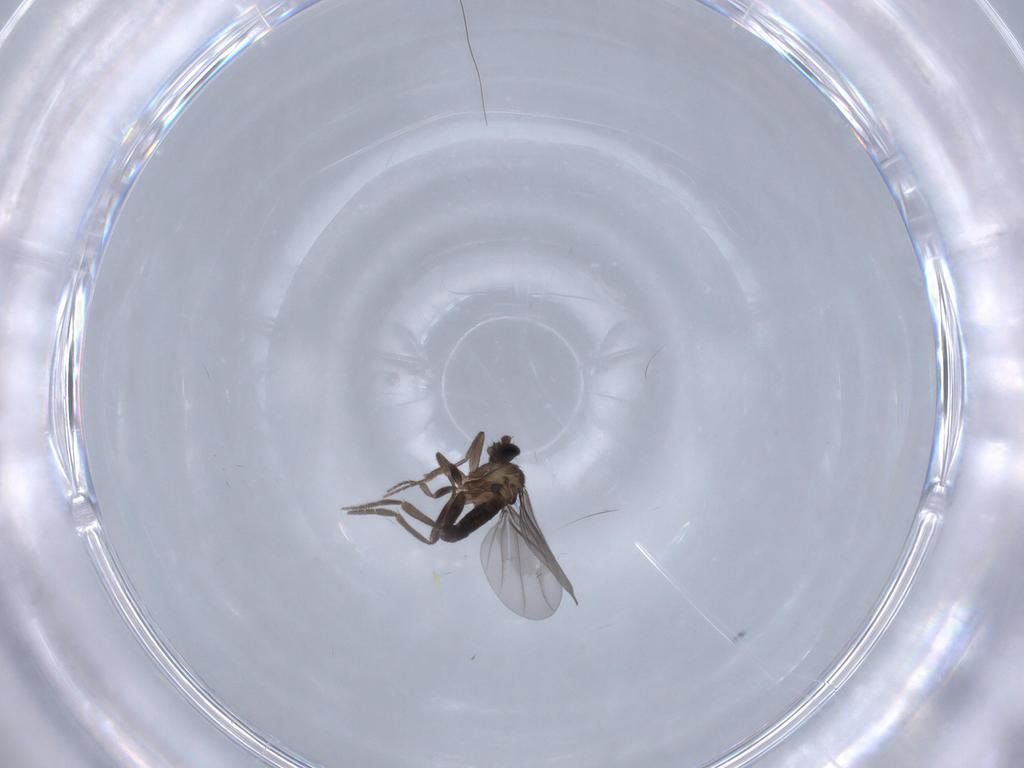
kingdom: Animalia
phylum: Arthropoda
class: Insecta
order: Diptera
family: Phoridae
